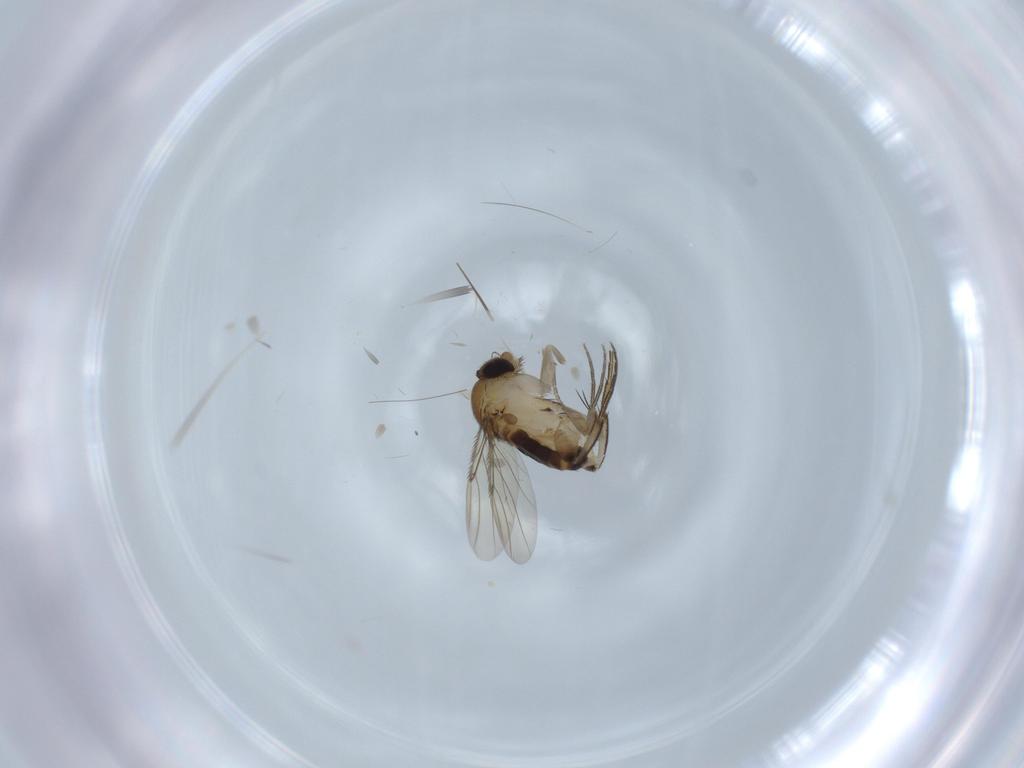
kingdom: Animalia
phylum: Arthropoda
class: Insecta
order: Diptera
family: Phoridae
